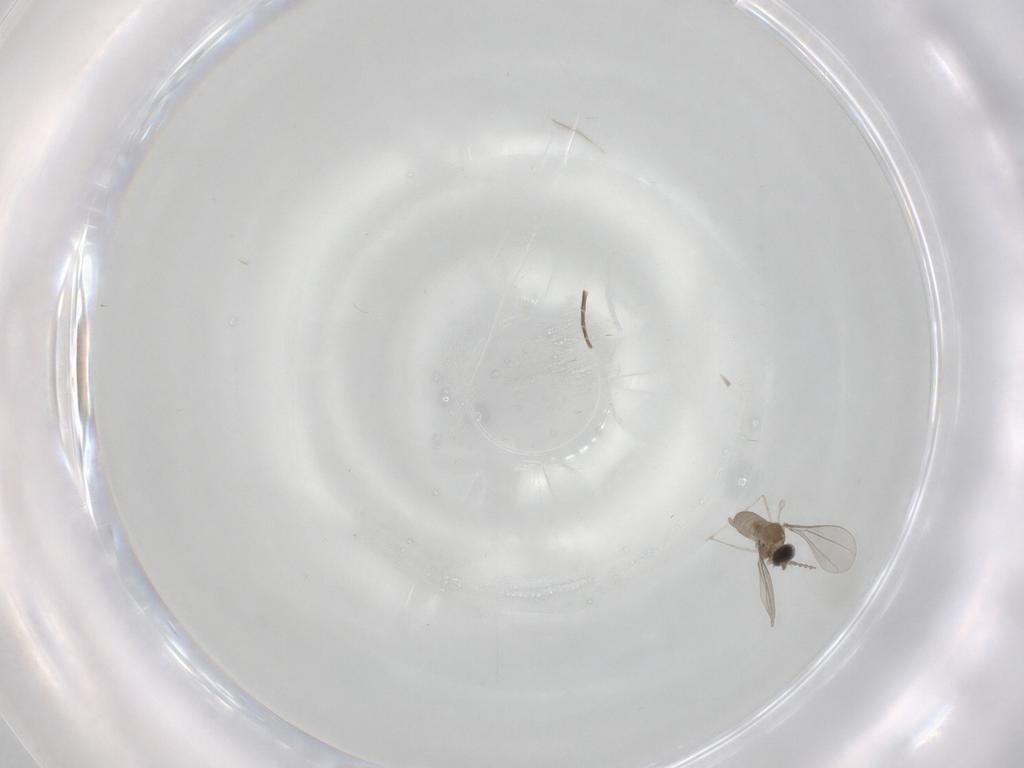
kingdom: Animalia
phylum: Arthropoda
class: Insecta
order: Diptera
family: Cecidomyiidae
